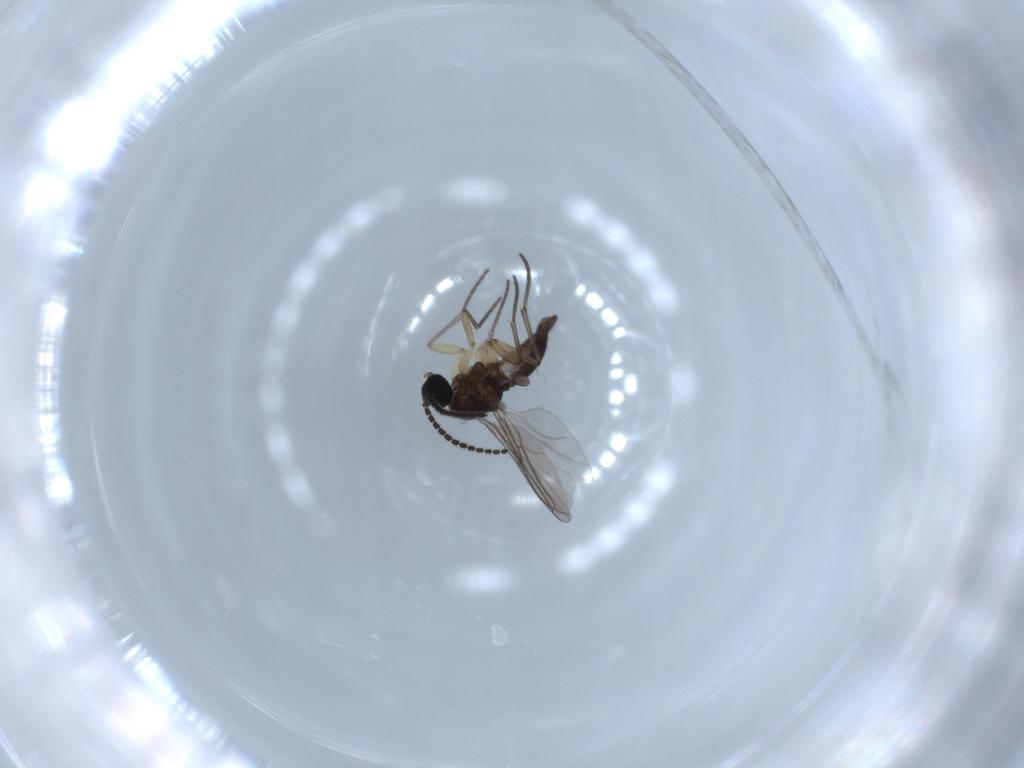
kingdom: Animalia
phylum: Arthropoda
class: Insecta
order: Diptera
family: Sciaridae
